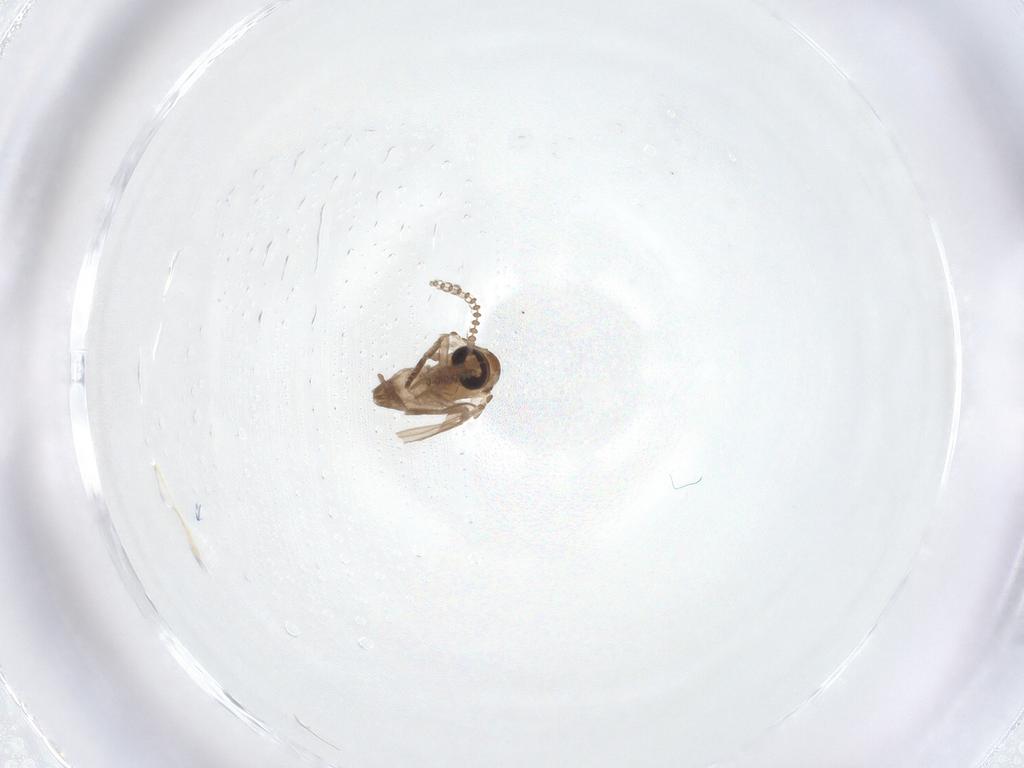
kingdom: Animalia
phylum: Arthropoda
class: Insecta
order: Diptera
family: Psychodidae
